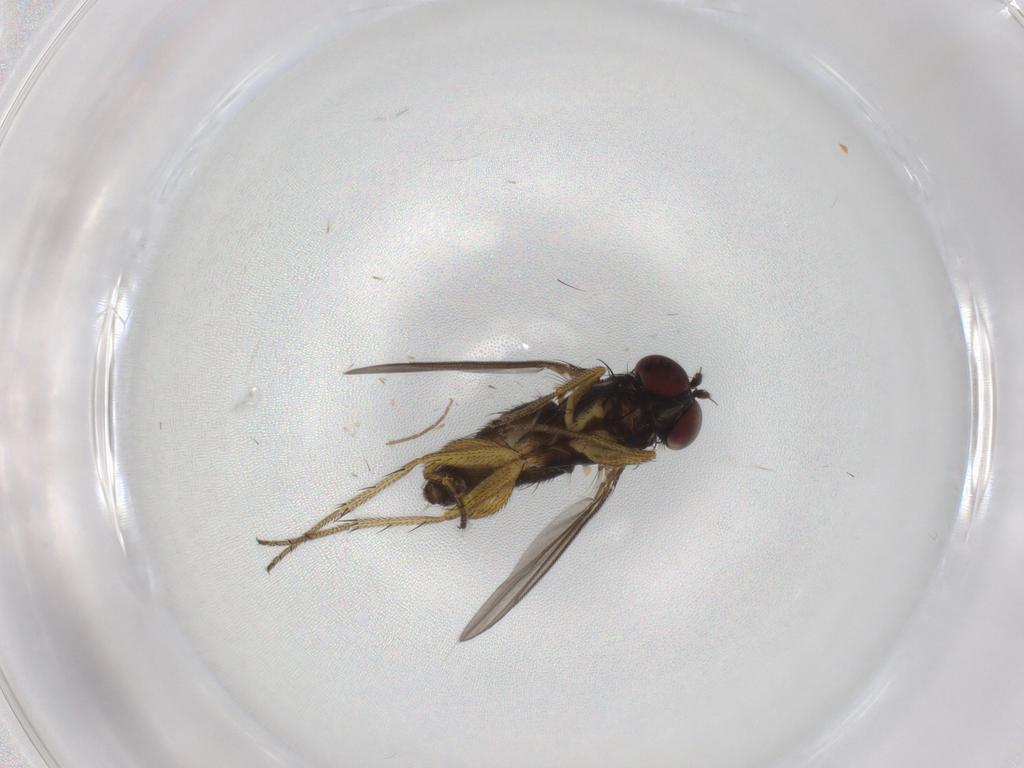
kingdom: Animalia
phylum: Arthropoda
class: Insecta
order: Diptera
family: Chironomidae
